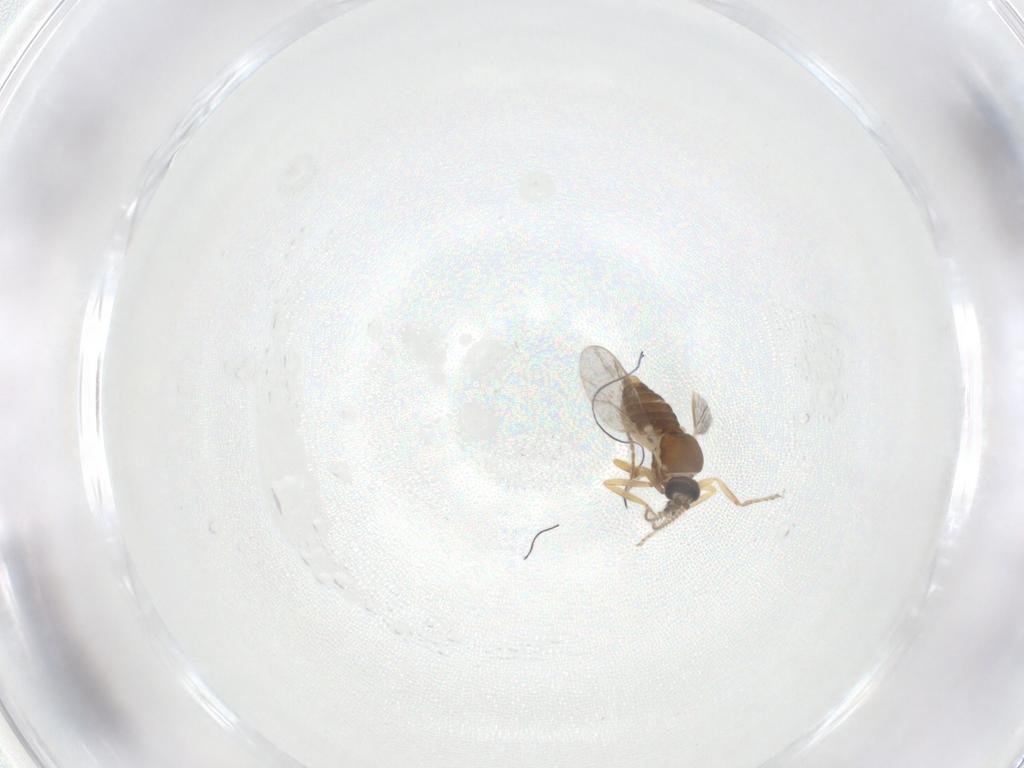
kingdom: Animalia
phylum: Arthropoda
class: Insecta
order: Diptera
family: Ceratopogonidae
